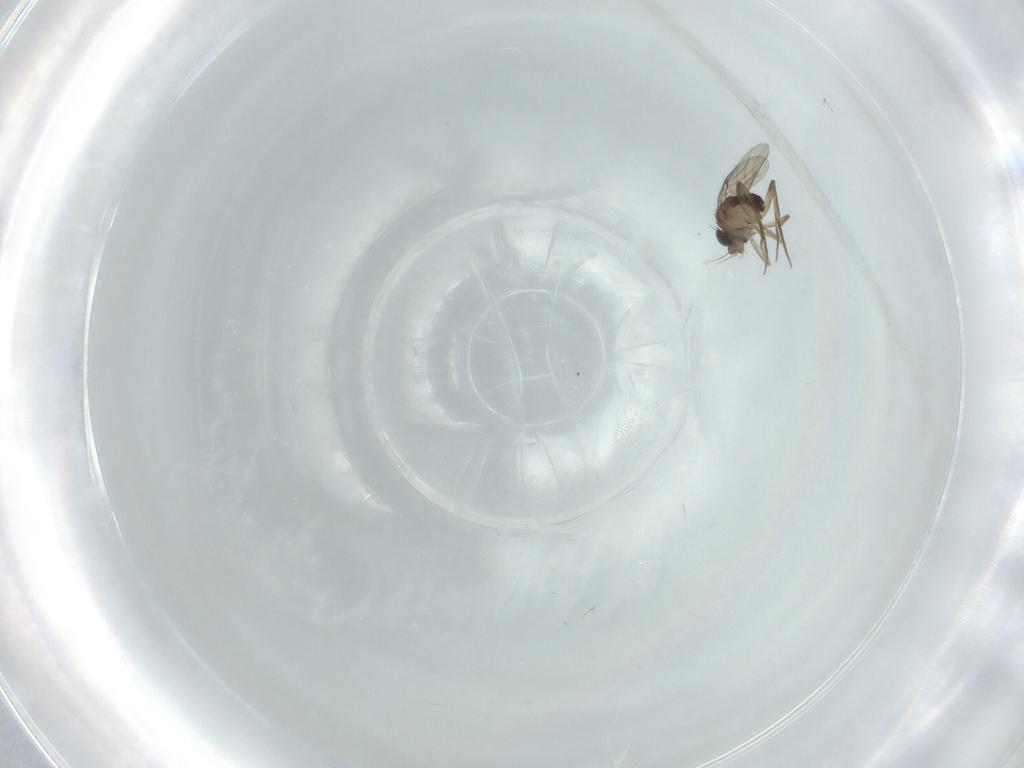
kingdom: Animalia
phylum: Arthropoda
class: Insecta
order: Diptera
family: Phoridae
